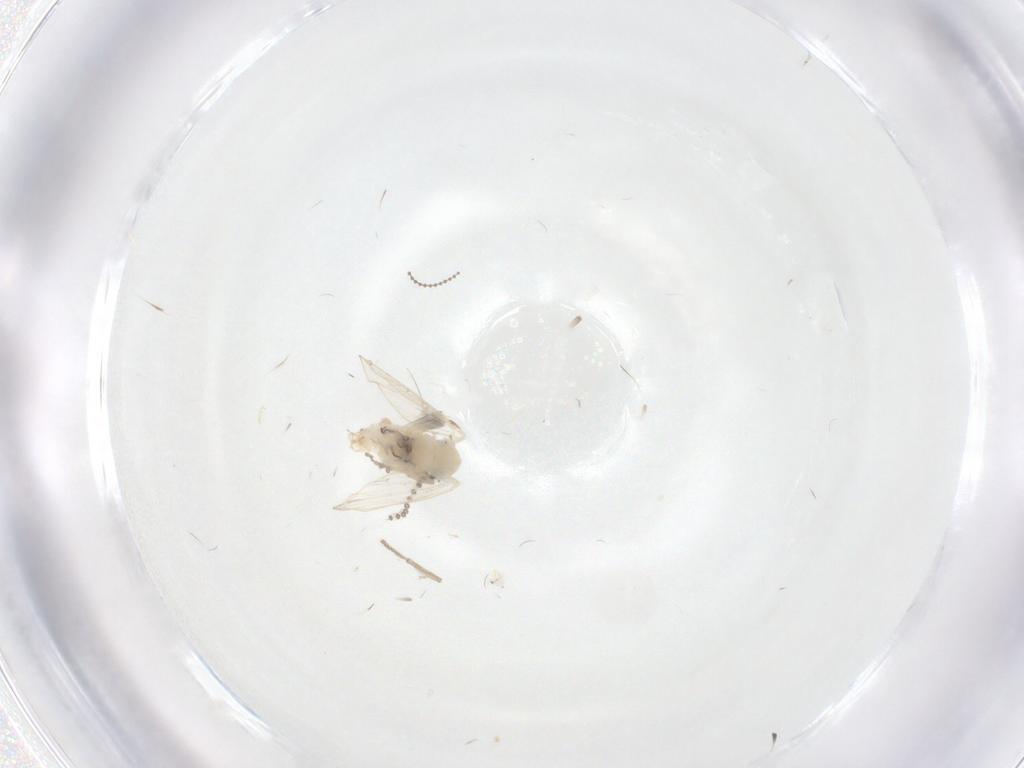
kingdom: Animalia
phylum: Arthropoda
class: Insecta
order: Diptera
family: Cecidomyiidae
